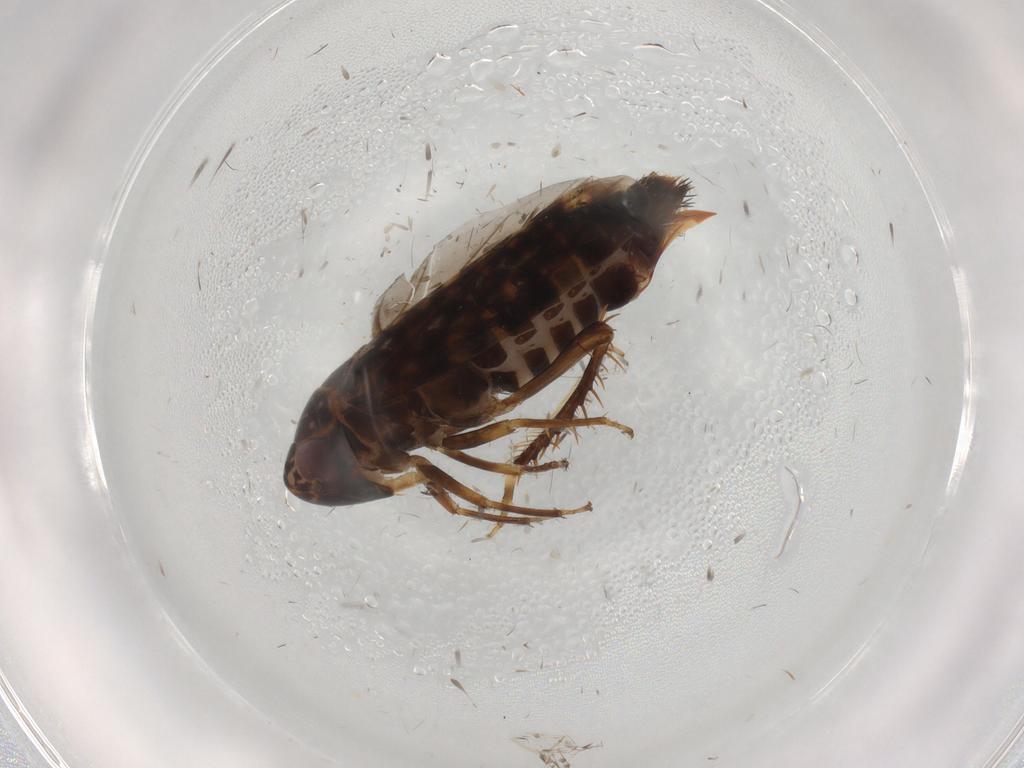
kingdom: Animalia
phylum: Arthropoda
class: Insecta
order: Hemiptera
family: Cicadellidae
